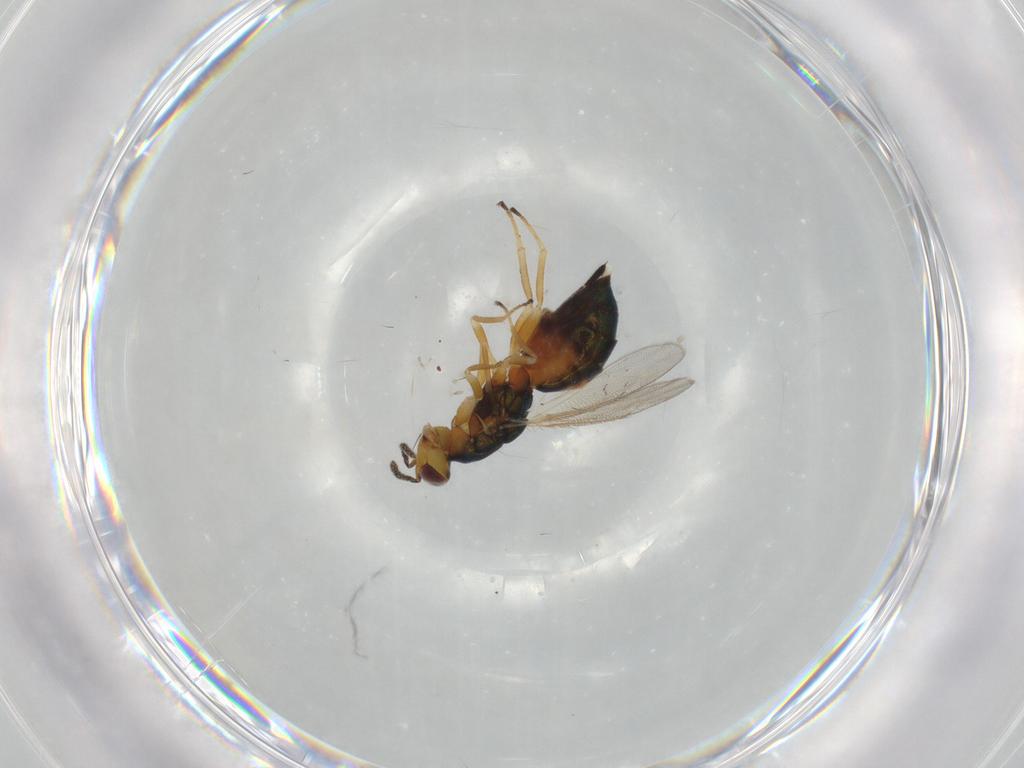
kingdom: Animalia
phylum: Arthropoda
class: Insecta
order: Hymenoptera
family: Eulophidae
